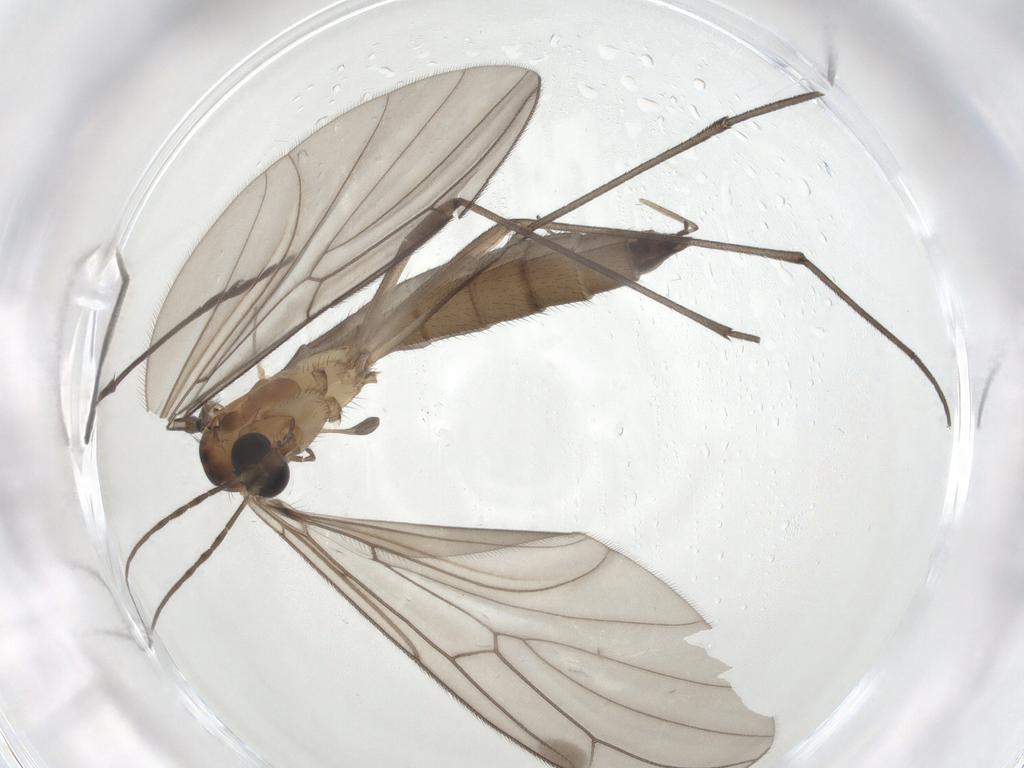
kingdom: Animalia
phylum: Arthropoda
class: Insecta
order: Diptera
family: Bolitophilidae
